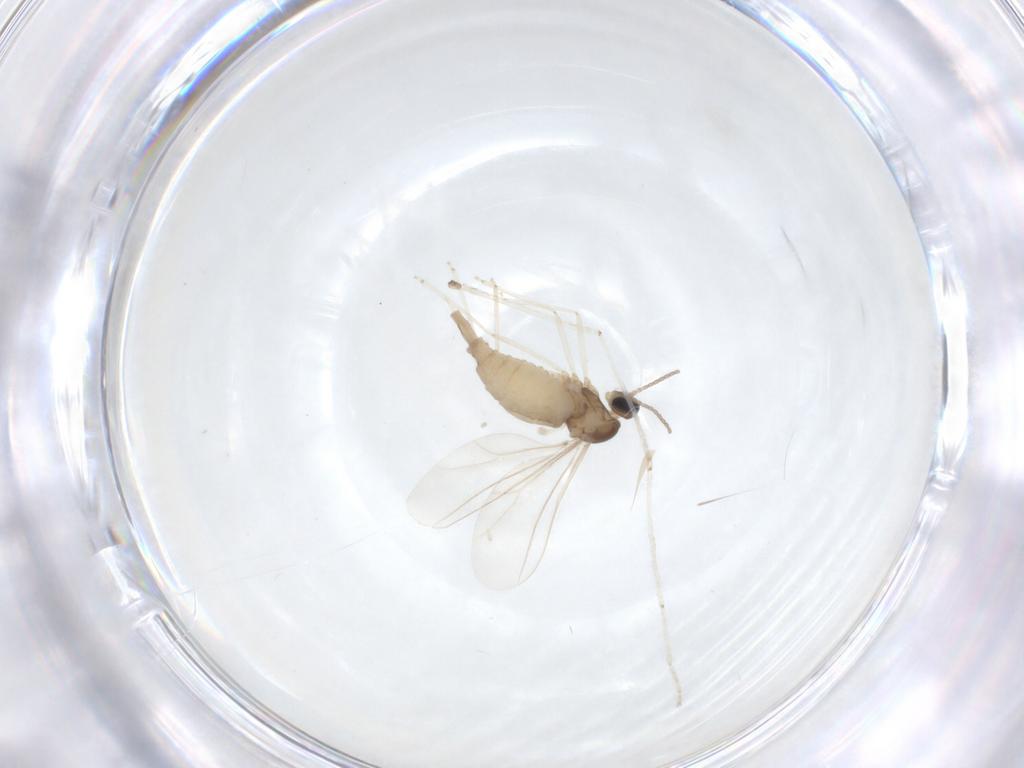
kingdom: Animalia
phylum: Arthropoda
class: Insecta
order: Diptera
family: Cecidomyiidae
